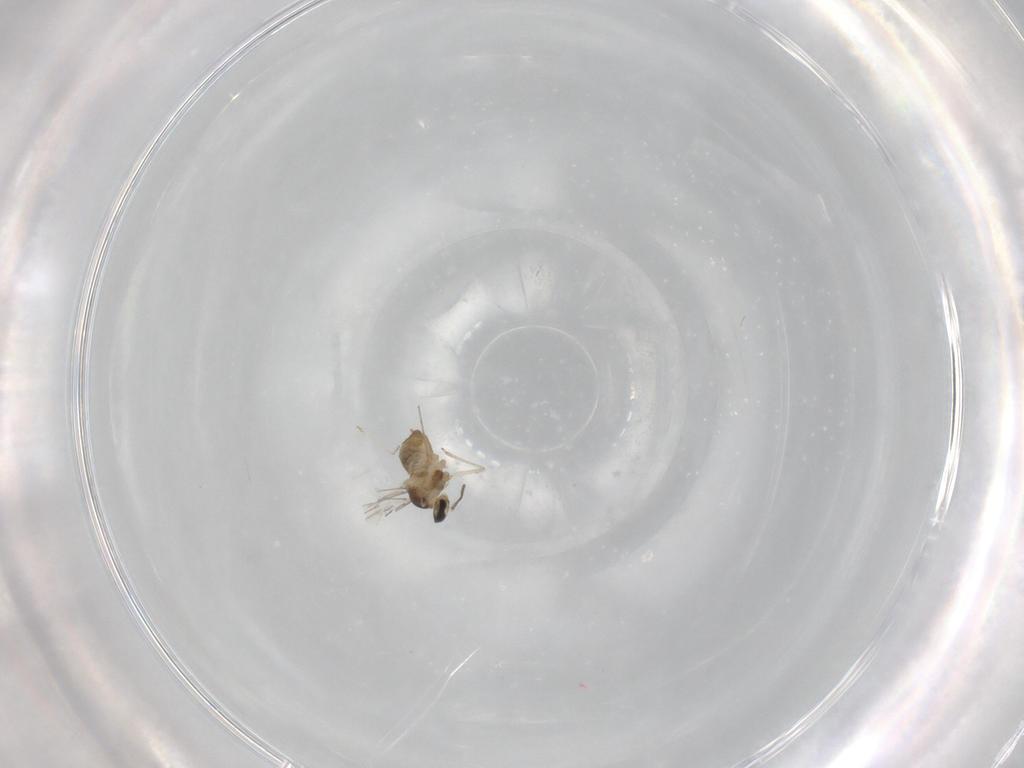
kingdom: Animalia
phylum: Arthropoda
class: Insecta
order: Diptera
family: Cecidomyiidae
